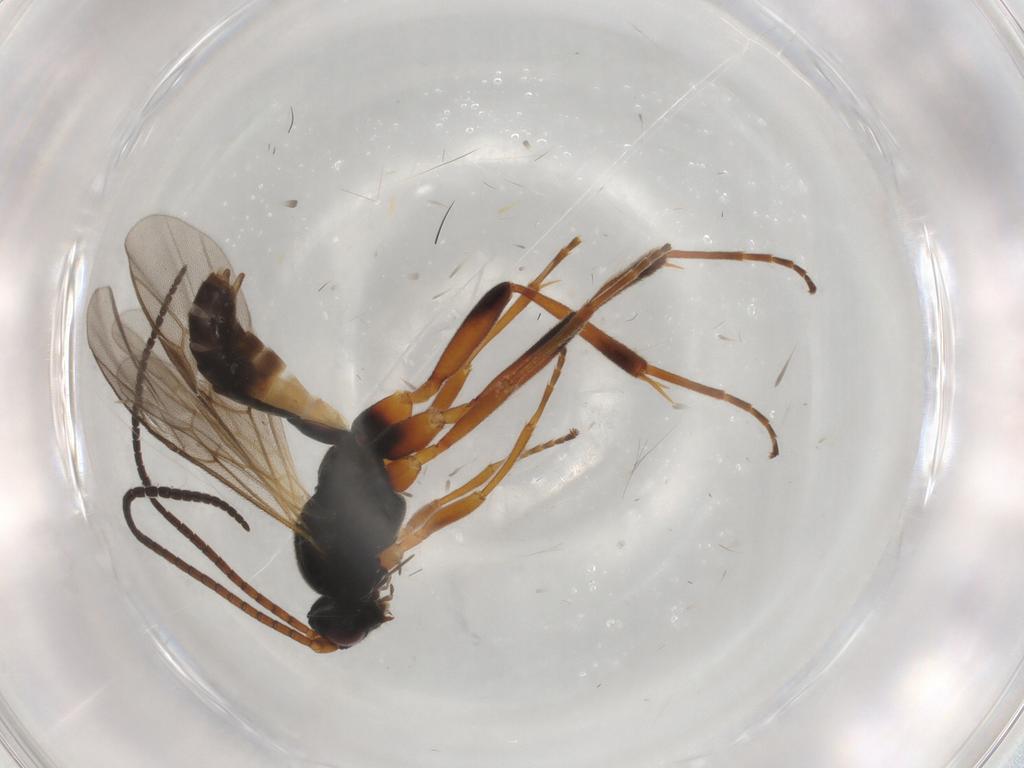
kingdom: Animalia
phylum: Arthropoda
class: Insecta
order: Hymenoptera
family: Braconidae
